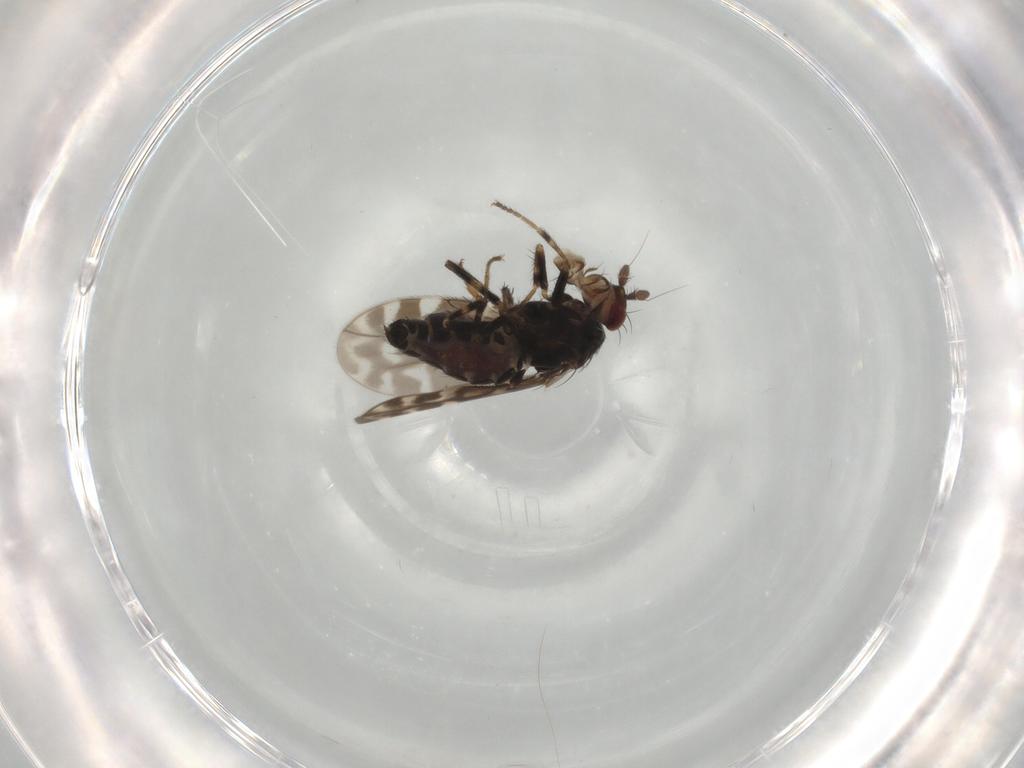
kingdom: Animalia
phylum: Arthropoda
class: Insecta
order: Diptera
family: Sphaeroceridae
